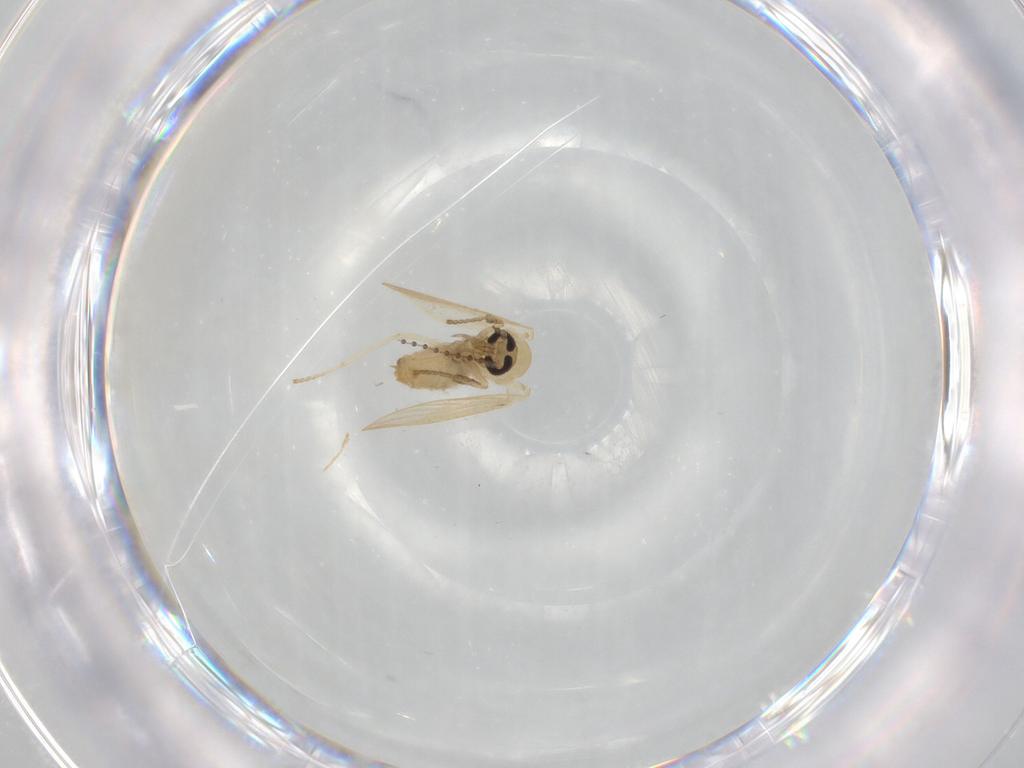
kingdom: Animalia
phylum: Arthropoda
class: Insecta
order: Diptera
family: Psychodidae
